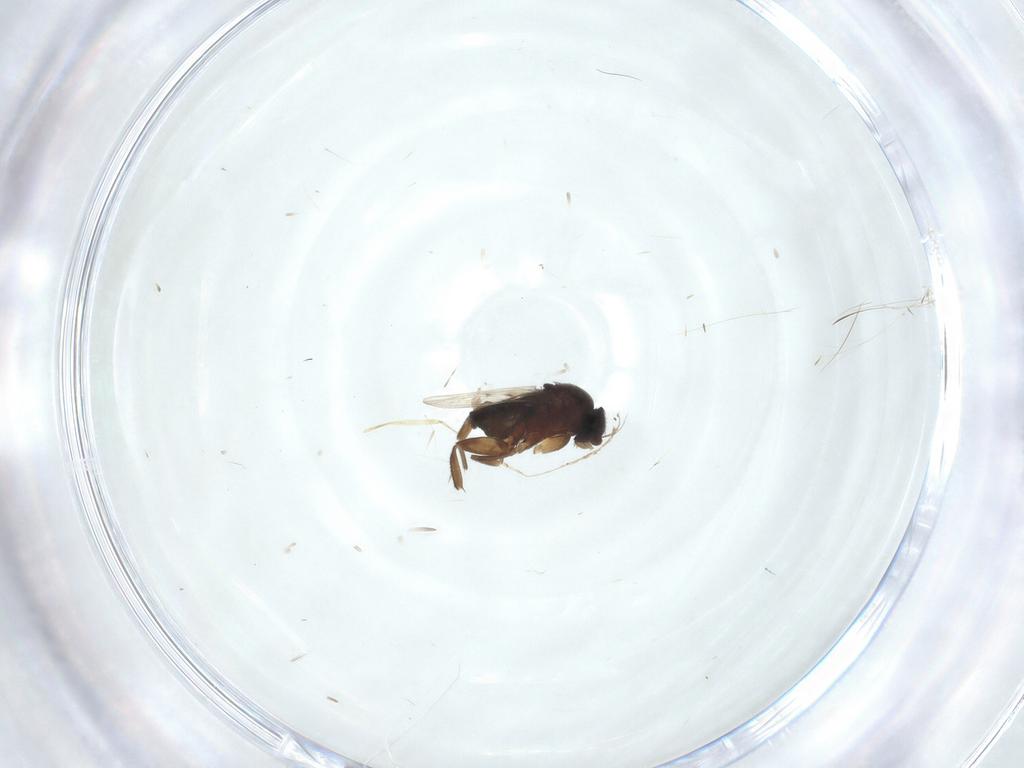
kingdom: Animalia
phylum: Arthropoda
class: Insecta
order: Diptera
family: Phoridae
